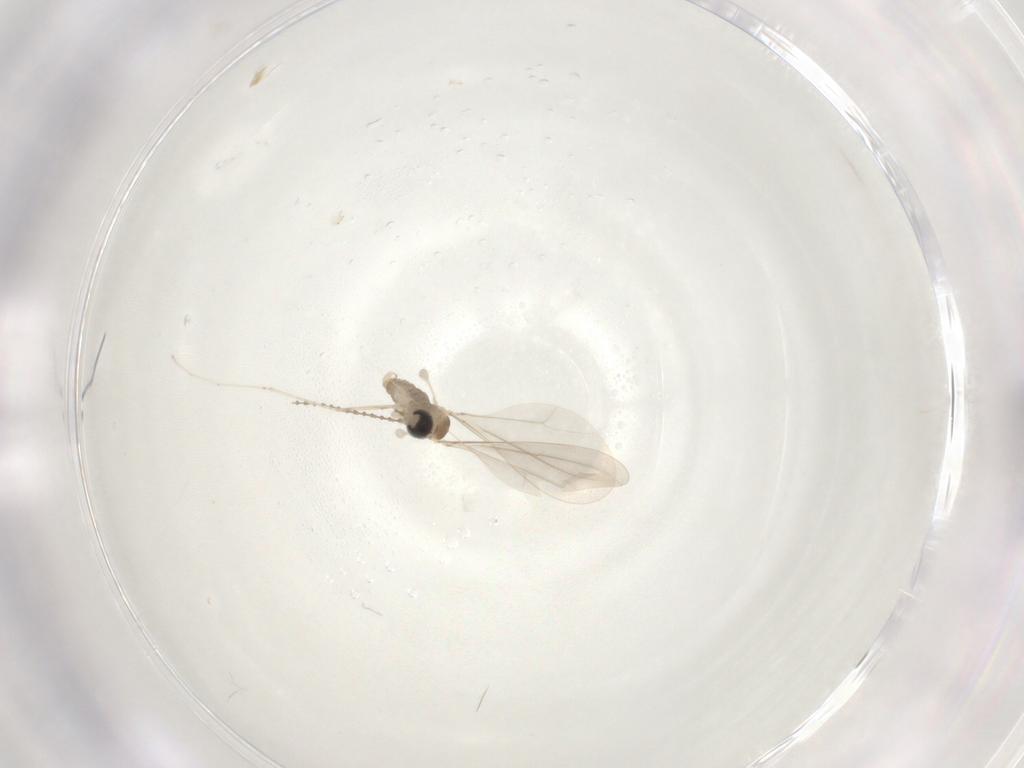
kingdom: Animalia
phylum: Arthropoda
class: Insecta
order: Diptera
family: Cecidomyiidae
